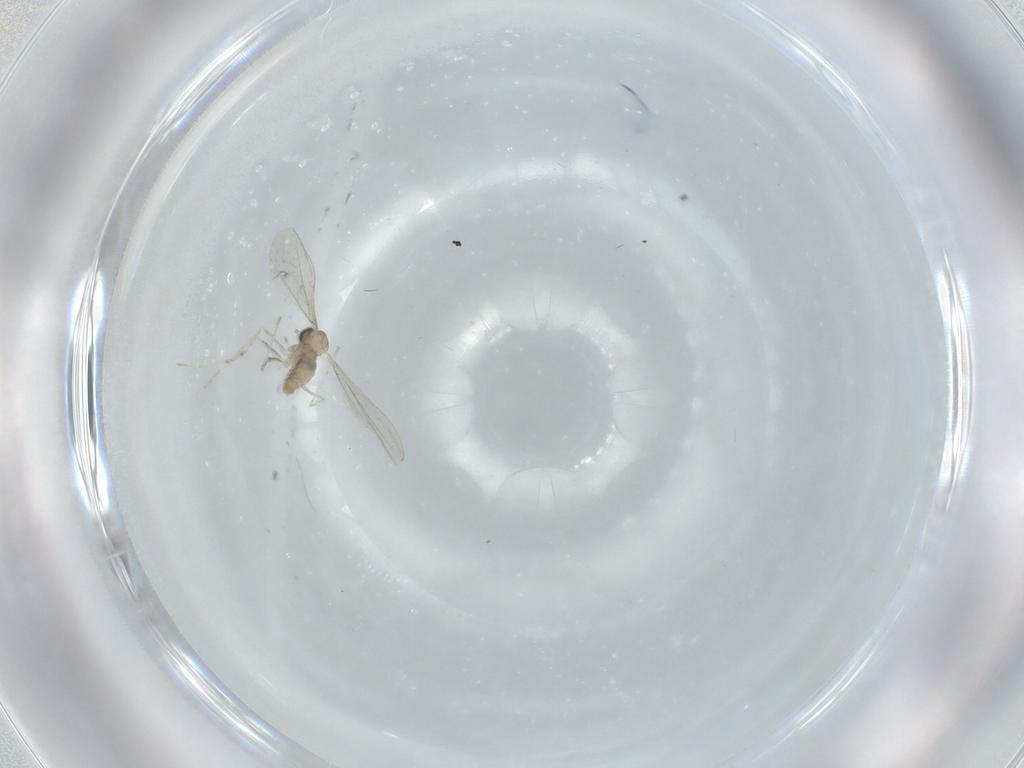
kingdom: Animalia
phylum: Arthropoda
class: Insecta
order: Diptera
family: Cecidomyiidae
